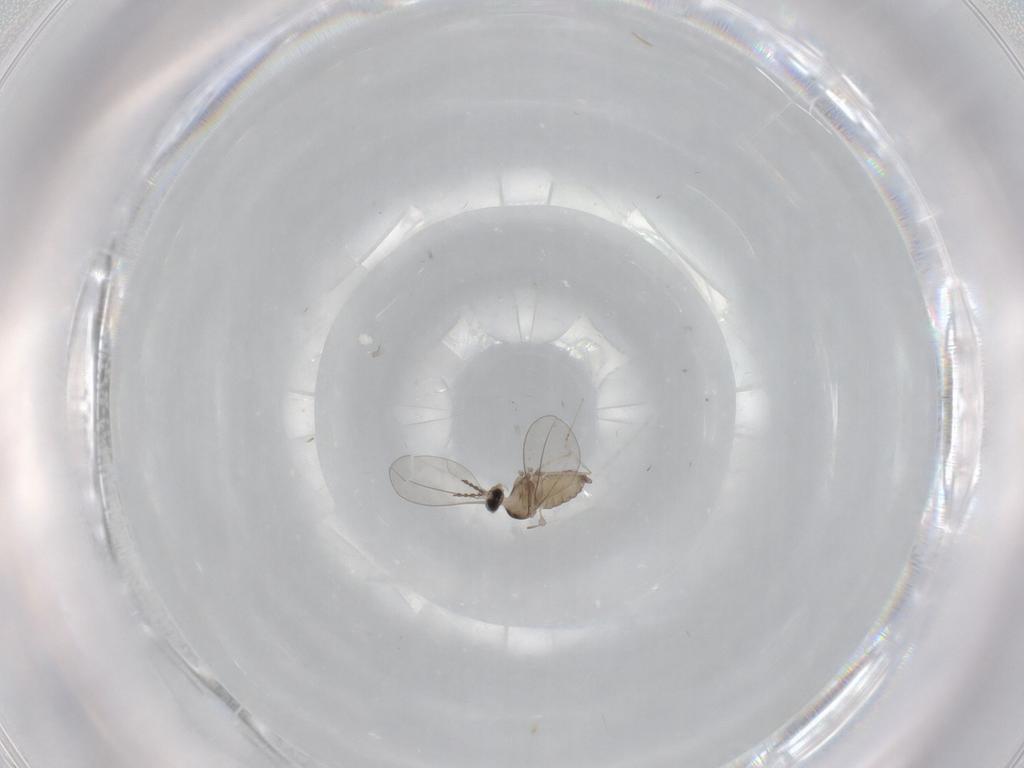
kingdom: Animalia
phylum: Arthropoda
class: Insecta
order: Diptera
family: Cecidomyiidae
